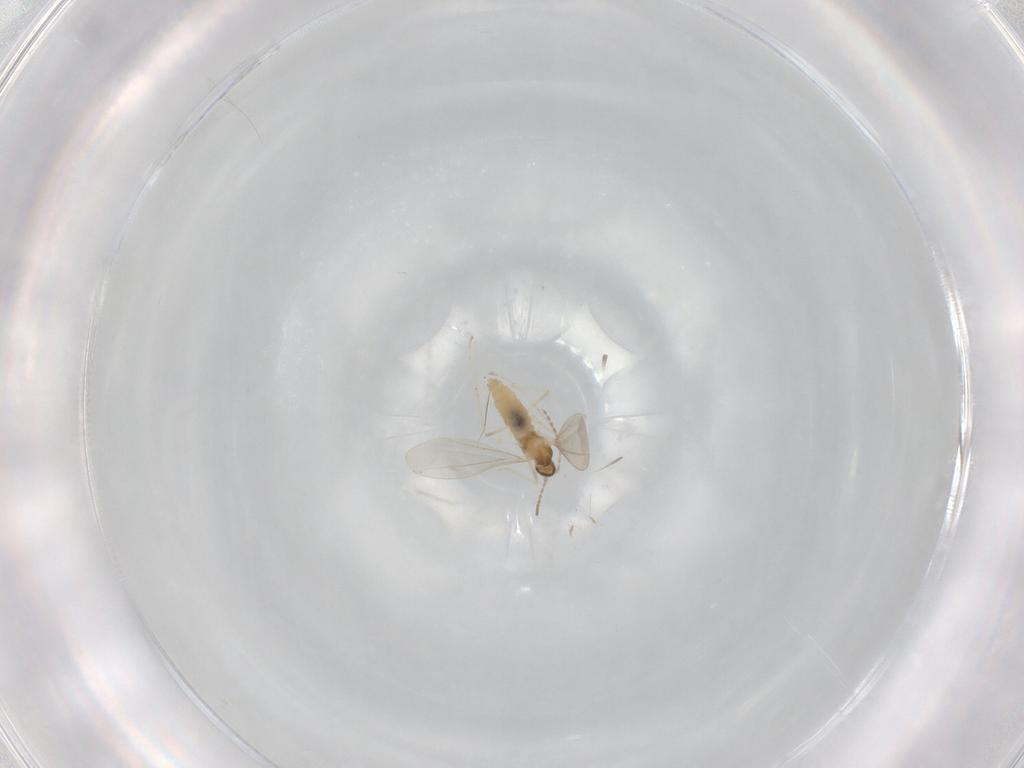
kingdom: Animalia
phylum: Arthropoda
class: Insecta
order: Diptera
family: Cecidomyiidae
